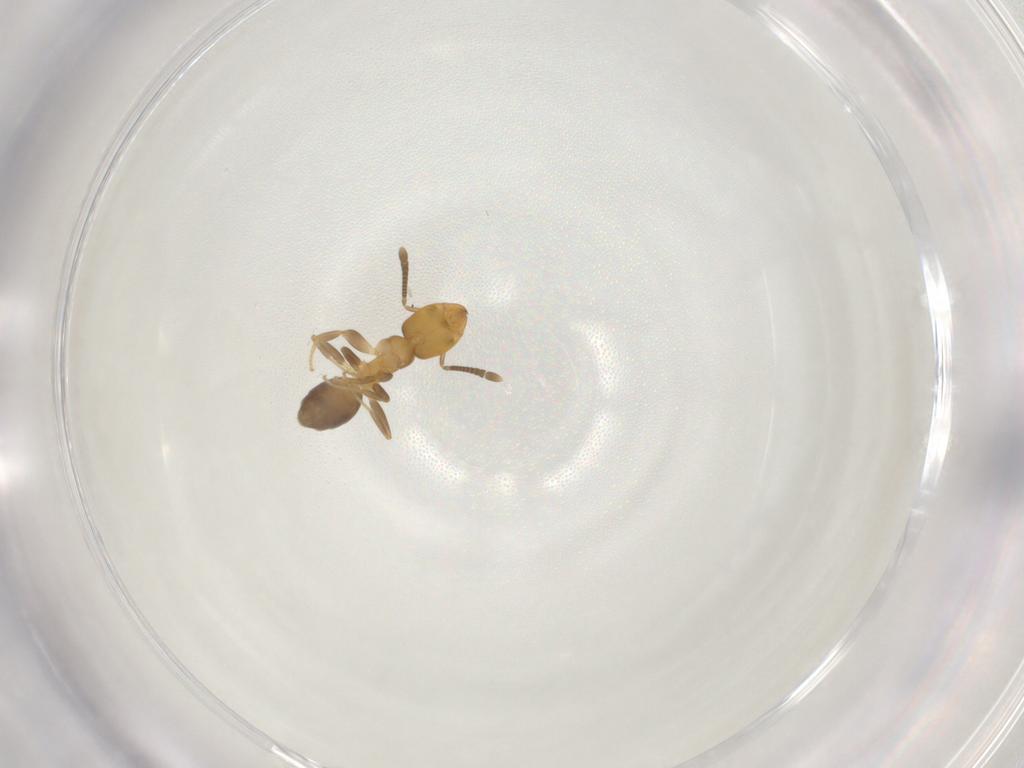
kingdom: Animalia
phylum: Arthropoda
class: Insecta
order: Hymenoptera
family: Formicidae
